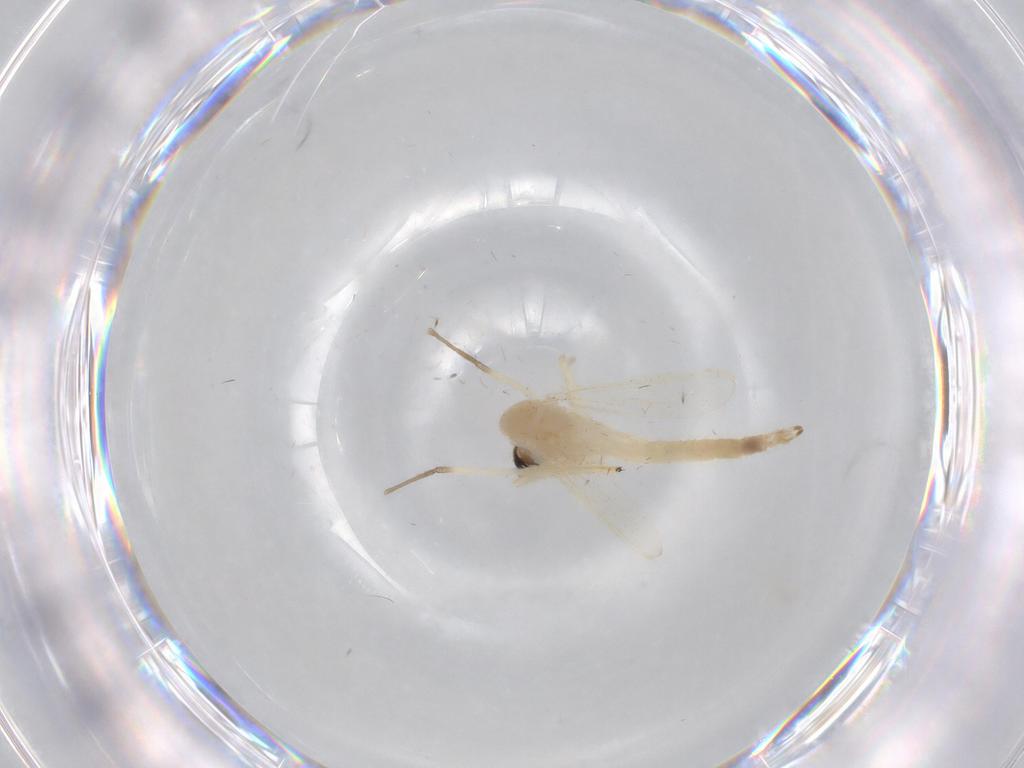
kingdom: Animalia
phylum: Arthropoda
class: Insecta
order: Diptera
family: Chironomidae
